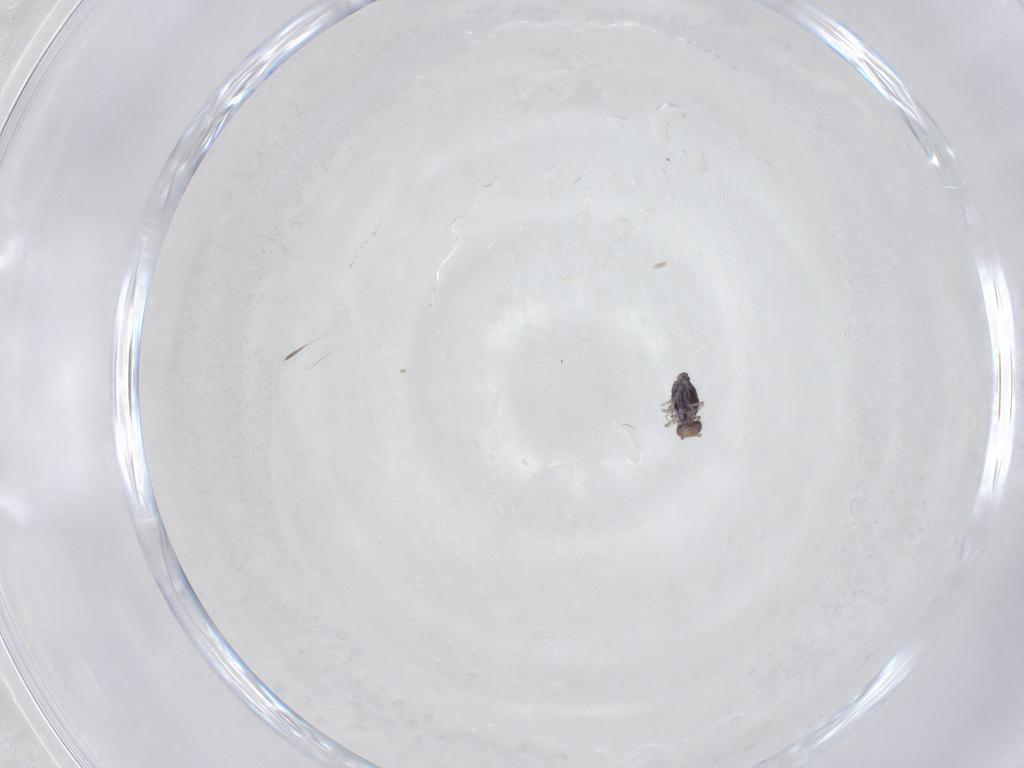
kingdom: Animalia
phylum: Arthropoda
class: Collembola
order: Symphypleona
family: Bourletiellidae
